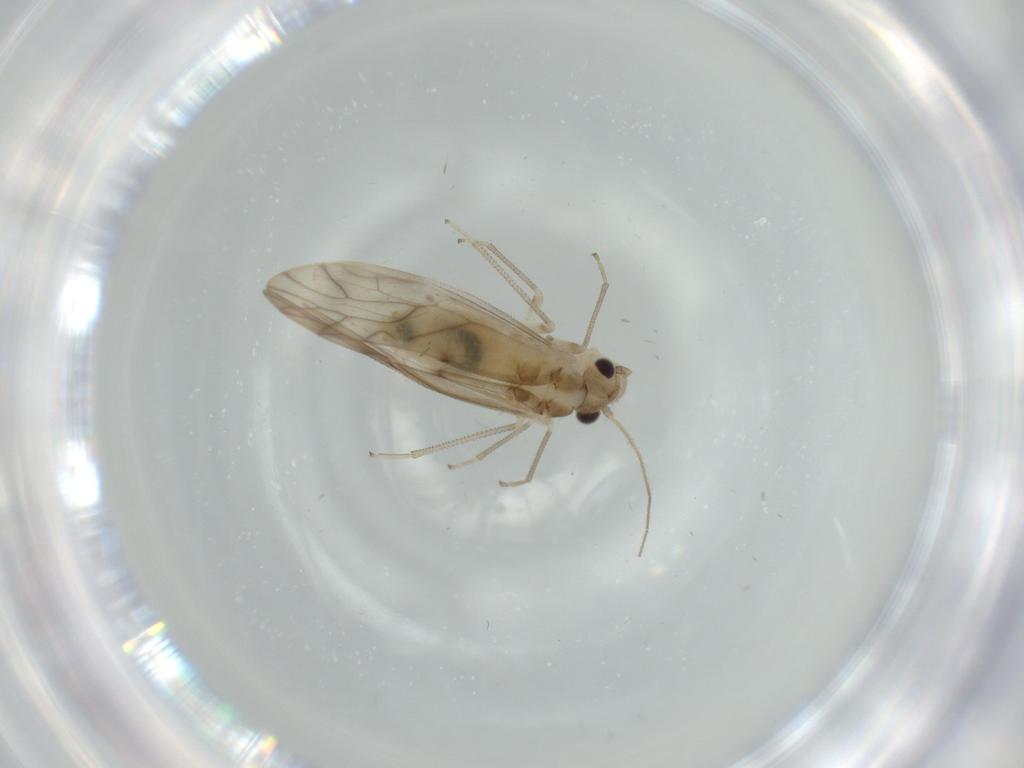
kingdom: Animalia
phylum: Arthropoda
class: Insecta
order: Psocodea
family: Caeciliusidae
